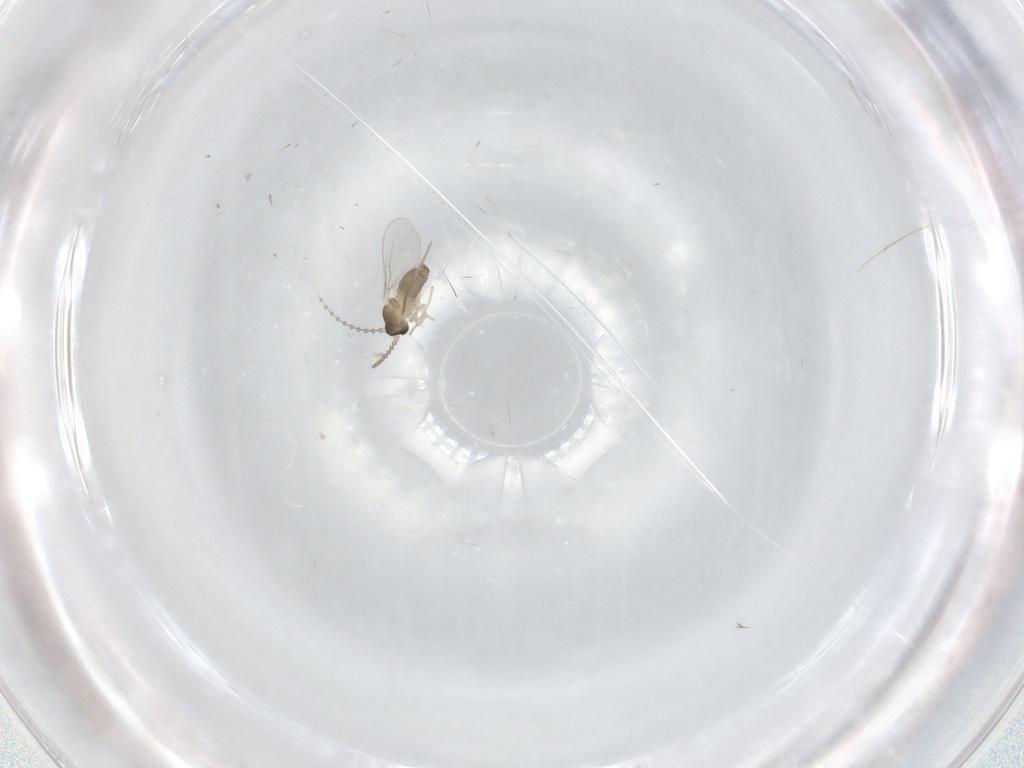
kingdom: Animalia
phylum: Arthropoda
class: Insecta
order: Diptera
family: Cecidomyiidae
